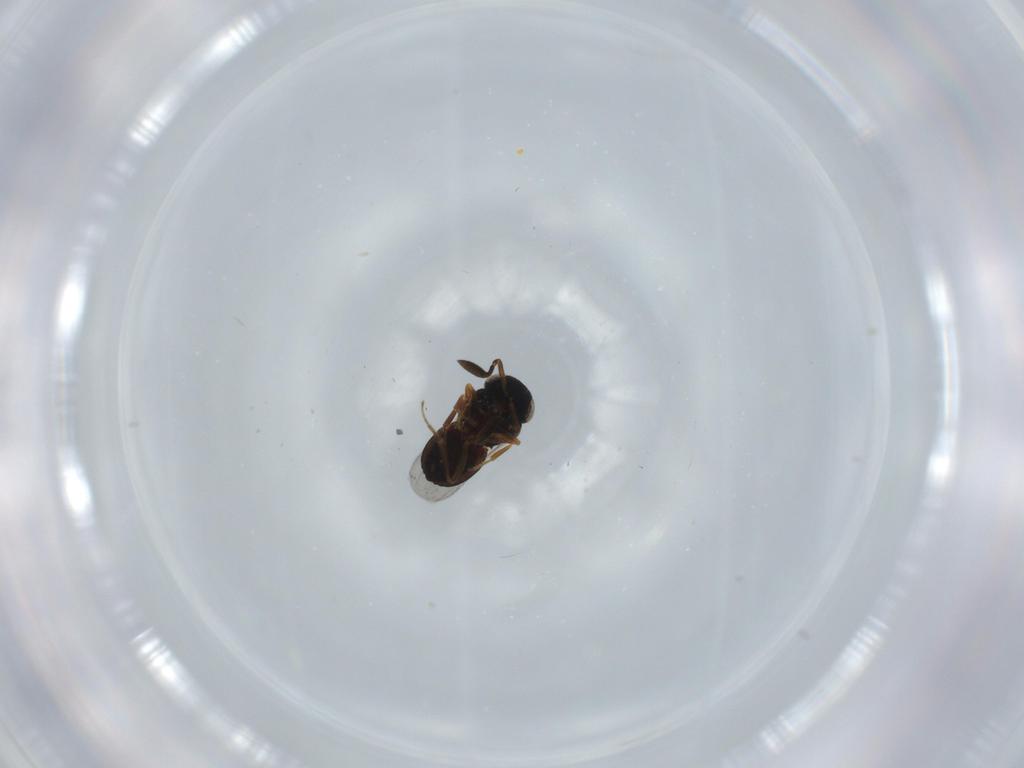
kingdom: Animalia
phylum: Arthropoda
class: Insecta
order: Coleoptera
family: Curculionidae
